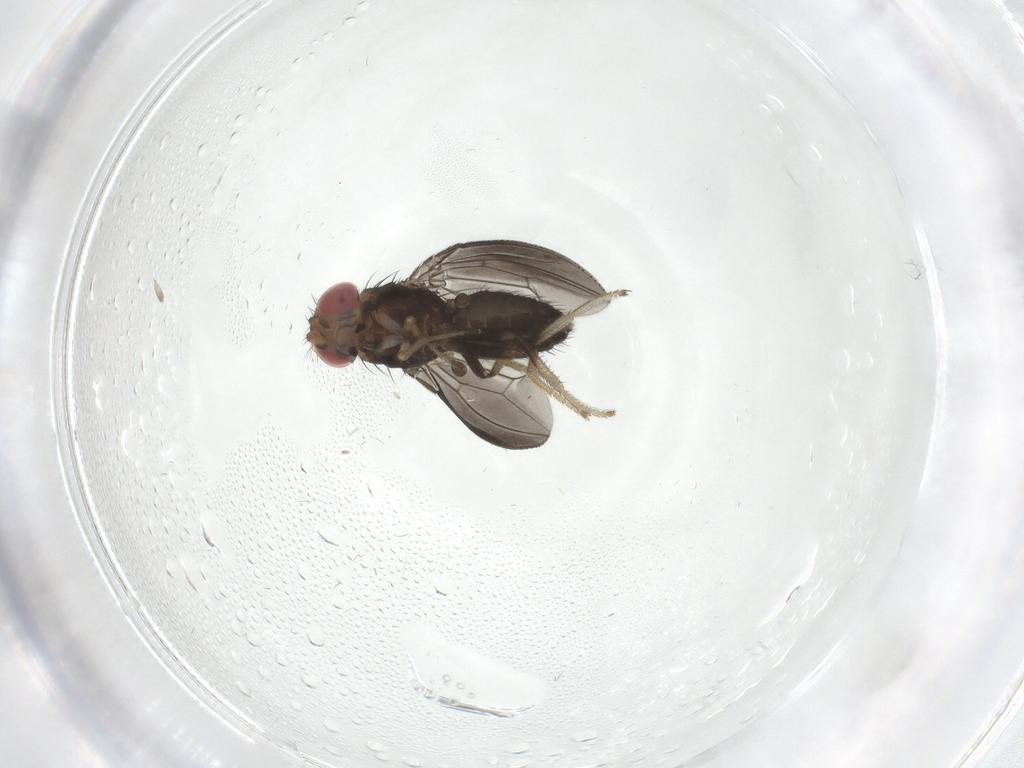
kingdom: Animalia
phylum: Arthropoda
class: Insecta
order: Diptera
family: Chironomidae
